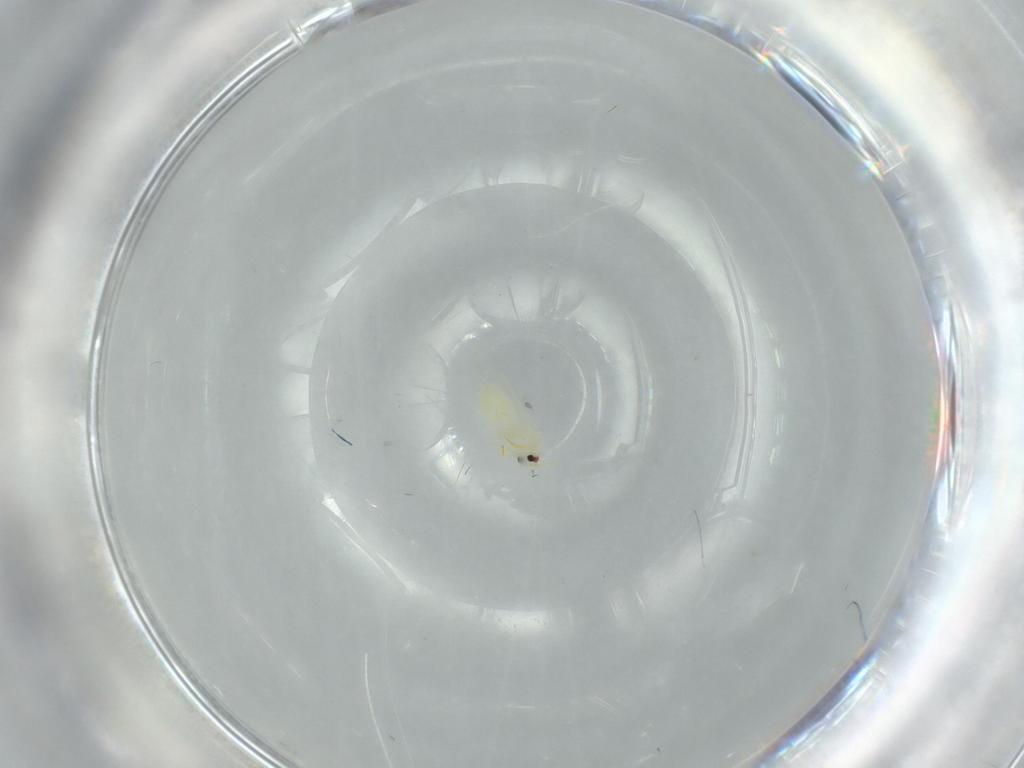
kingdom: Animalia
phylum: Arthropoda
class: Insecta
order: Hemiptera
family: Aleyrodidae
